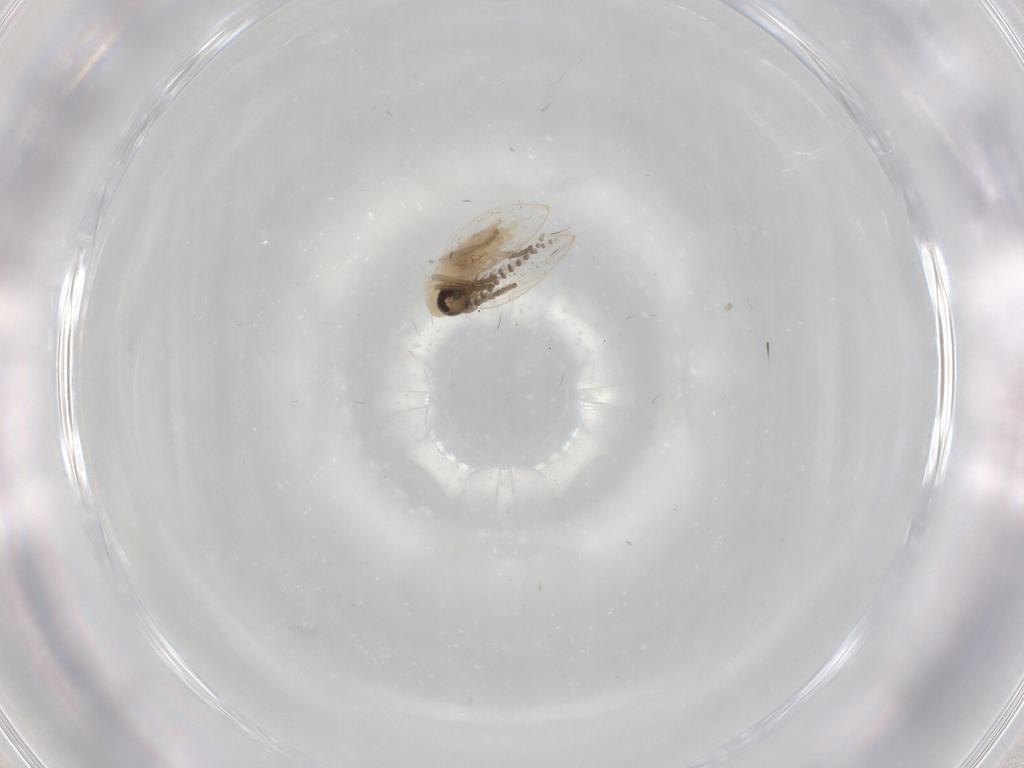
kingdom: Animalia
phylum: Arthropoda
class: Insecta
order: Diptera
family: Psychodidae
